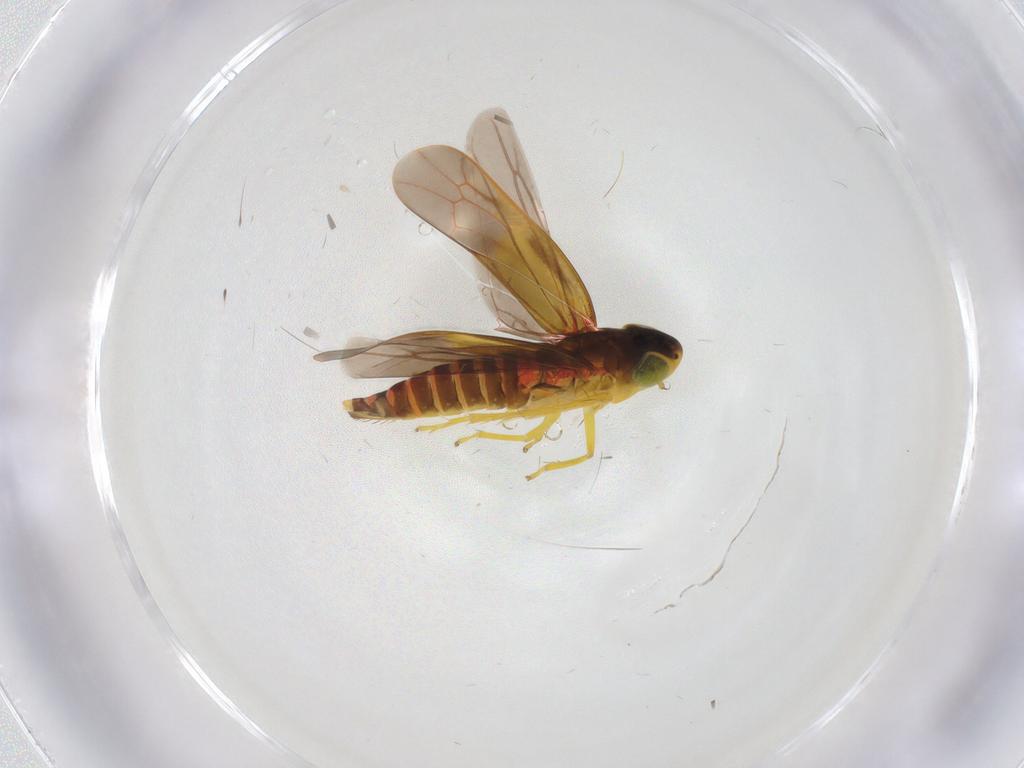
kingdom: Animalia
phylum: Arthropoda
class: Insecta
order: Hemiptera
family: Cicadellidae
